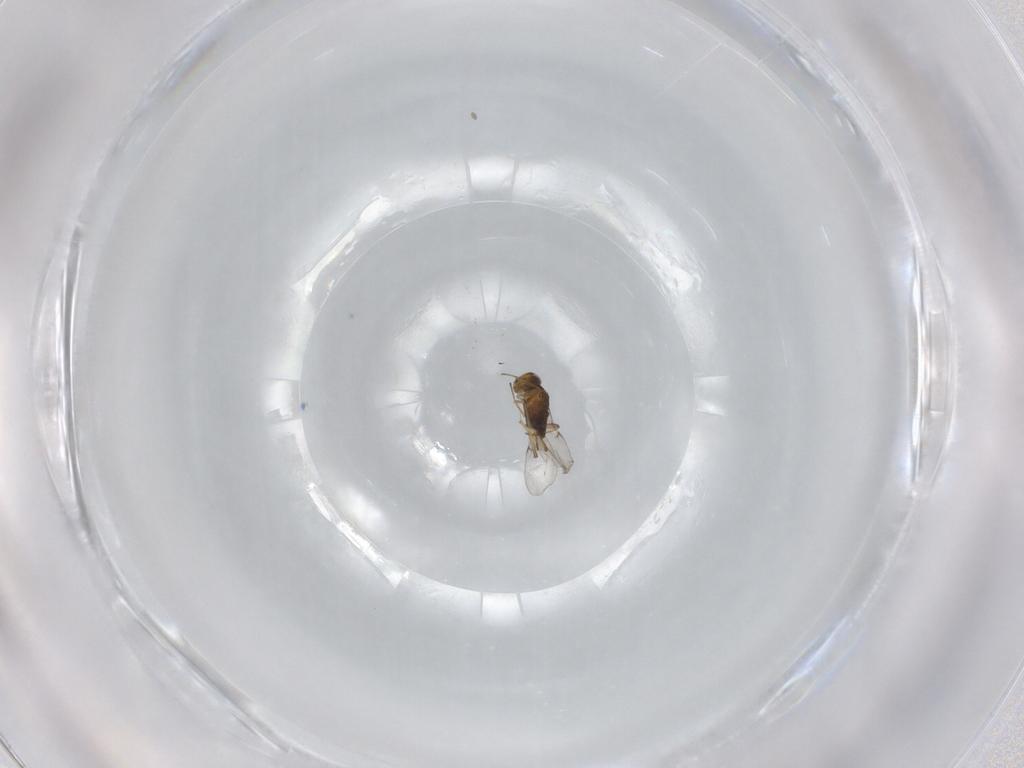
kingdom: Animalia
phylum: Arthropoda
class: Insecta
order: Hymenoptera
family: Encyrtidae
